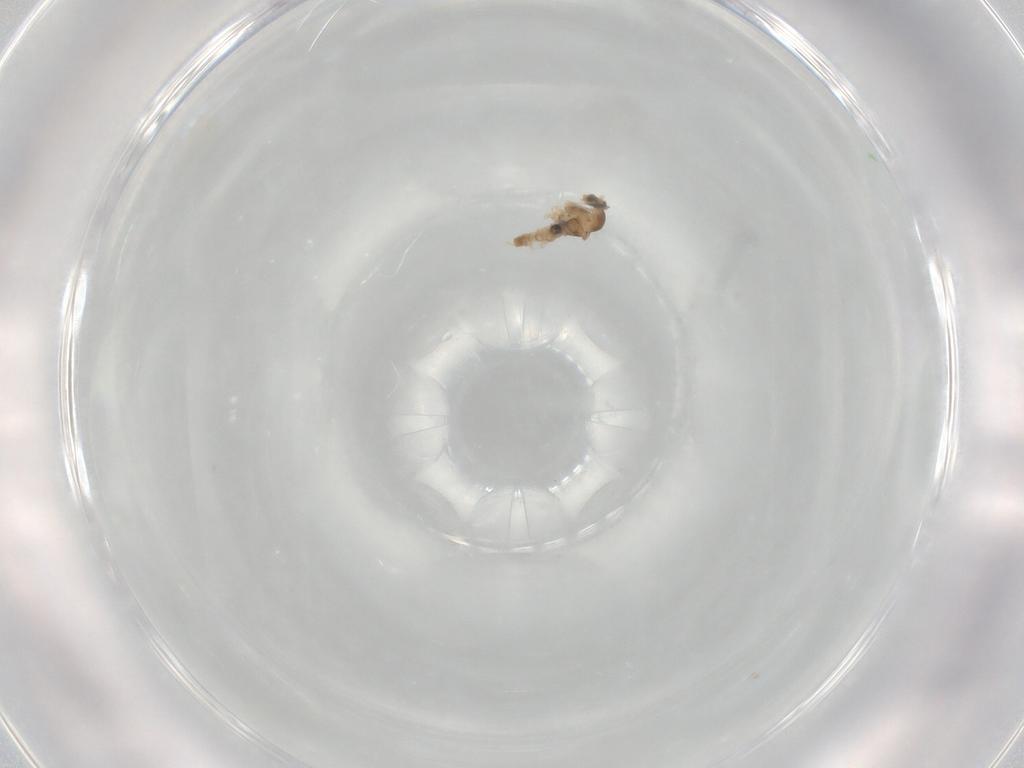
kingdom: Animalia
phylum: Arthropoda
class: Insecta
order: Diptera
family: Cecidomyiidae
